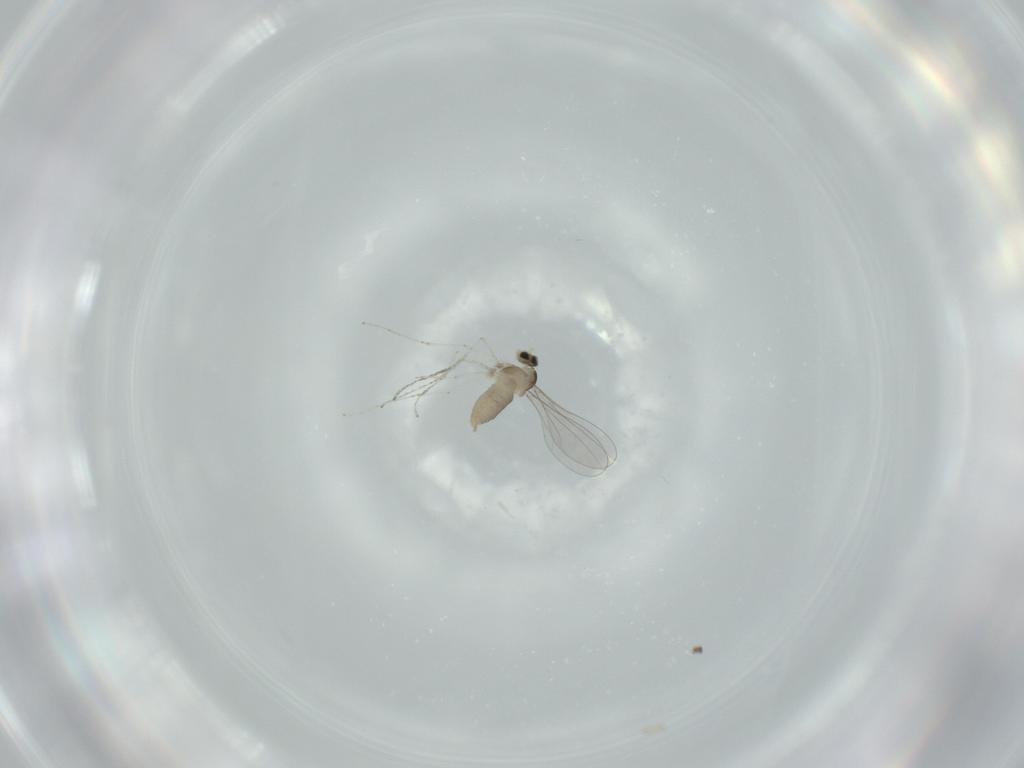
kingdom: Animalia
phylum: Arthropoda
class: Insecta
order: Diptera
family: Cecidomyiidae
